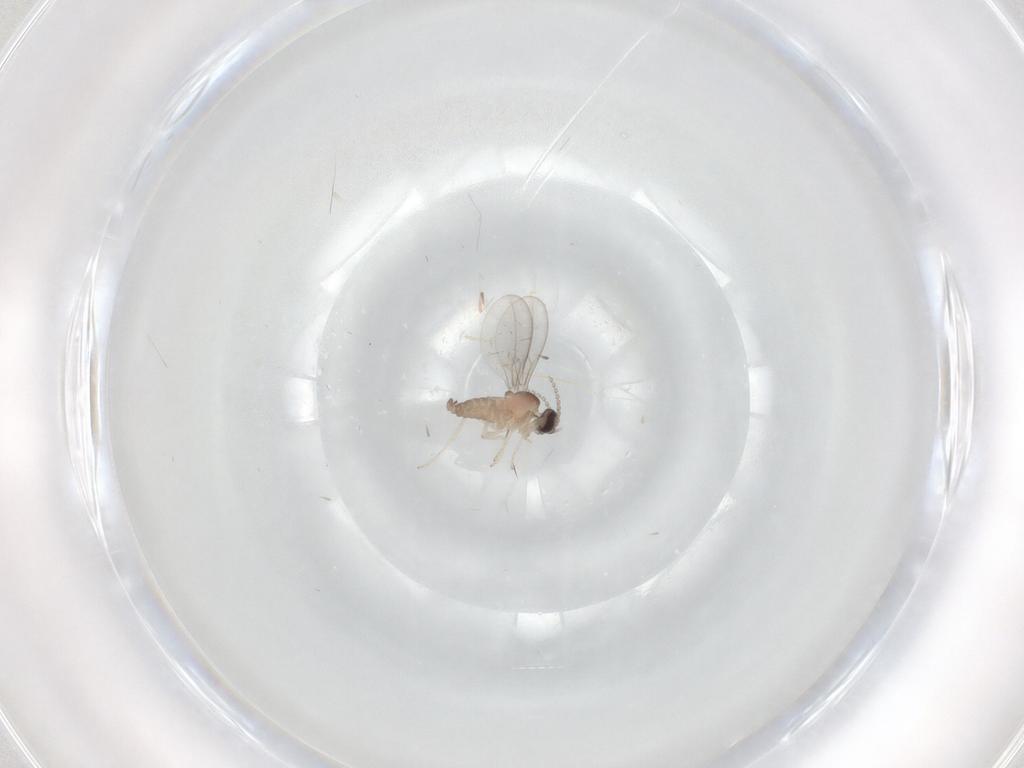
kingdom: Animalia
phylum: Arthropoda
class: Insecta
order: Diptera
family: Cecidomyiidae
